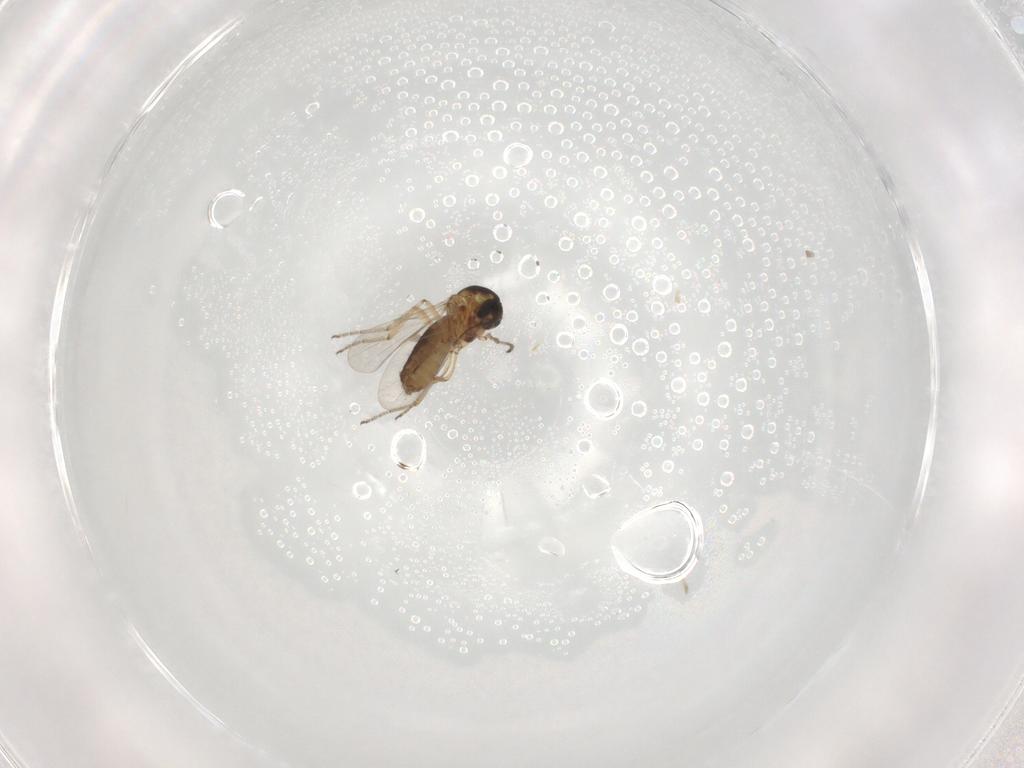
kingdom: Animalia
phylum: Arthropoda
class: Insecta
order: Diptera
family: Ceratopogonidae
